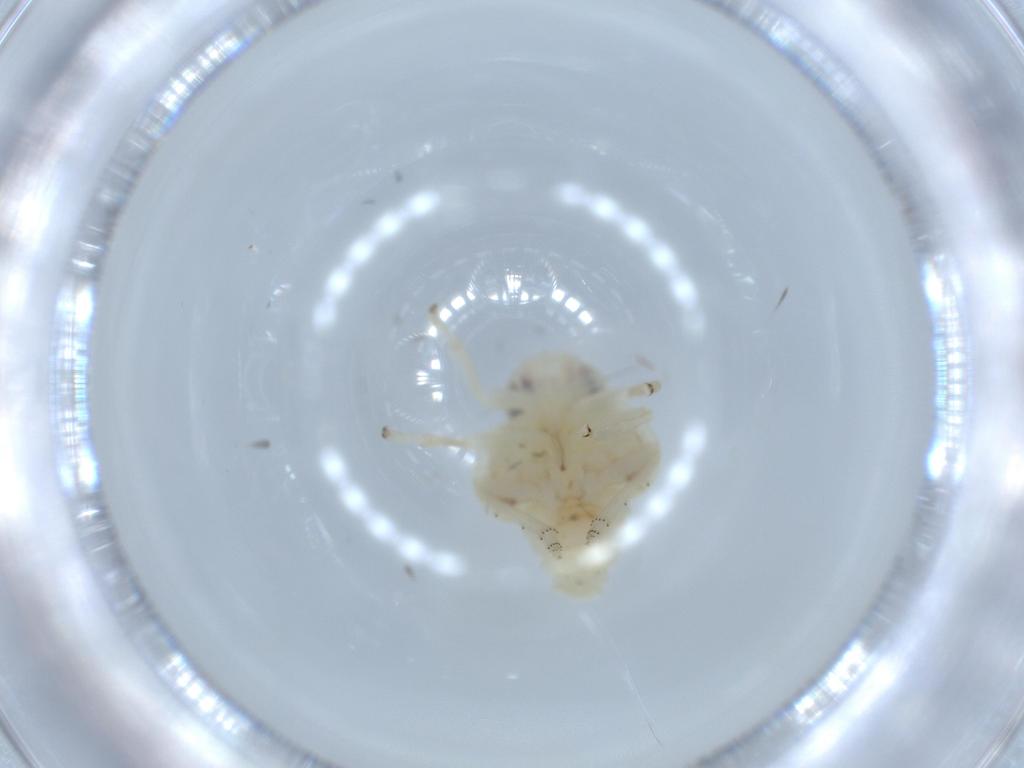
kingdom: Animalia
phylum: Arthropoda
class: Insecta
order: Hemiptera
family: Nogodinidae
